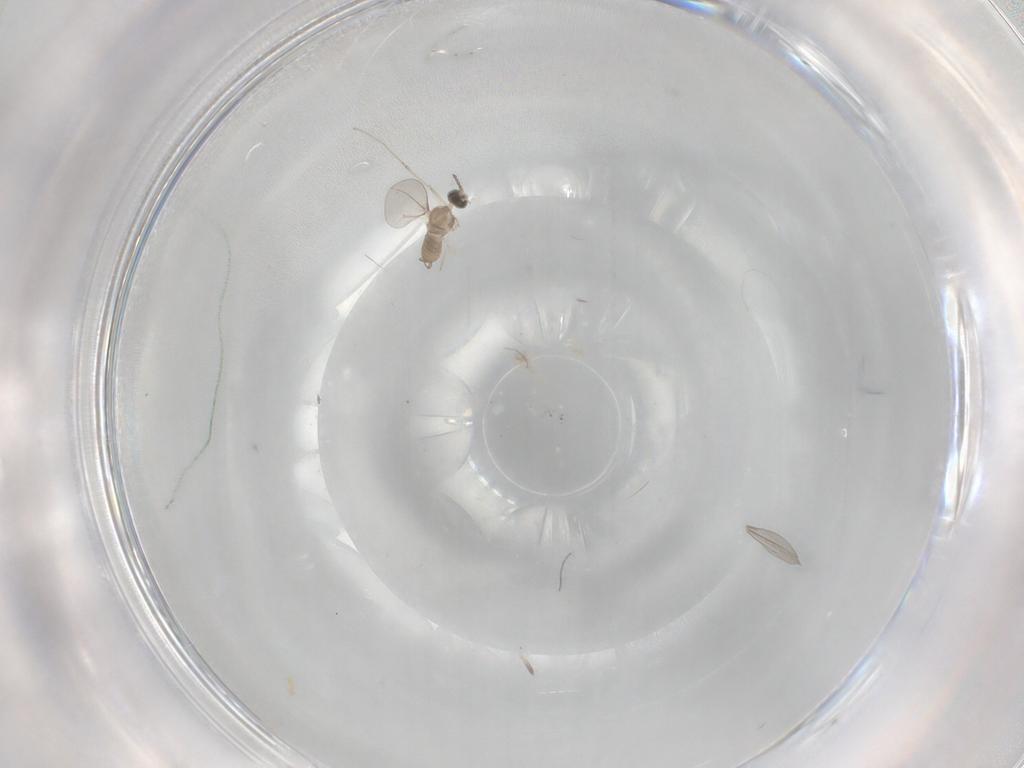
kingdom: Animalia
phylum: Arthropoda
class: Insecta
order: Diptera
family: Cecidomyiidae
